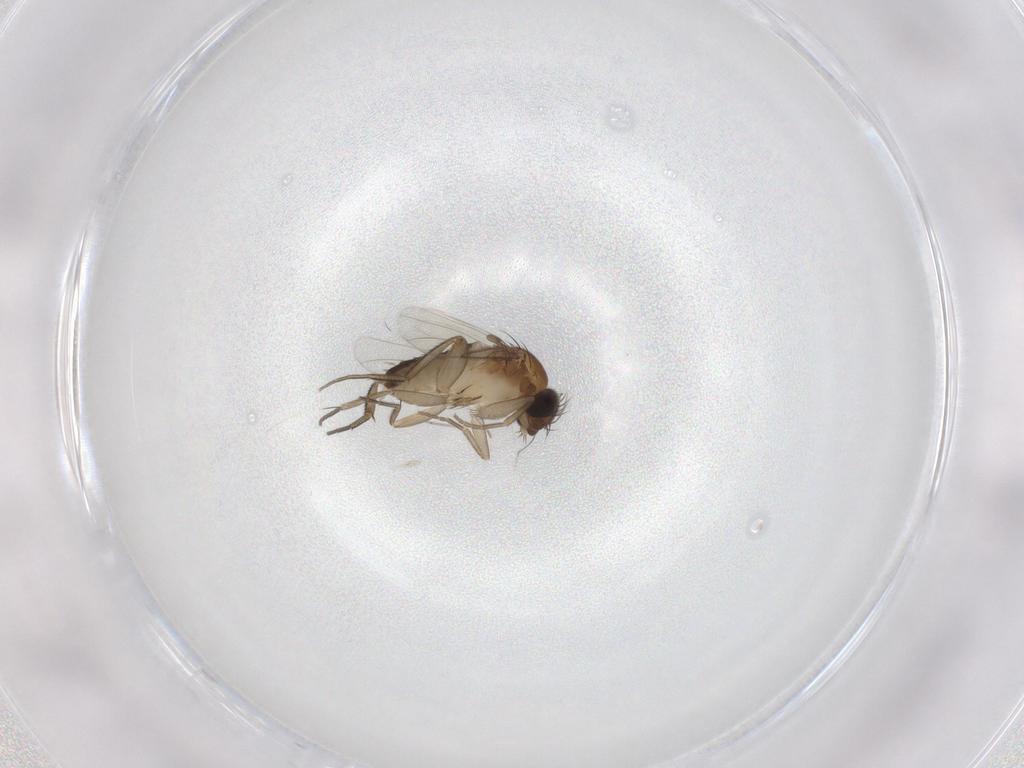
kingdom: Animalia
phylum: Arthropoda
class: Insecta
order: Diptera
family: Phoridae
